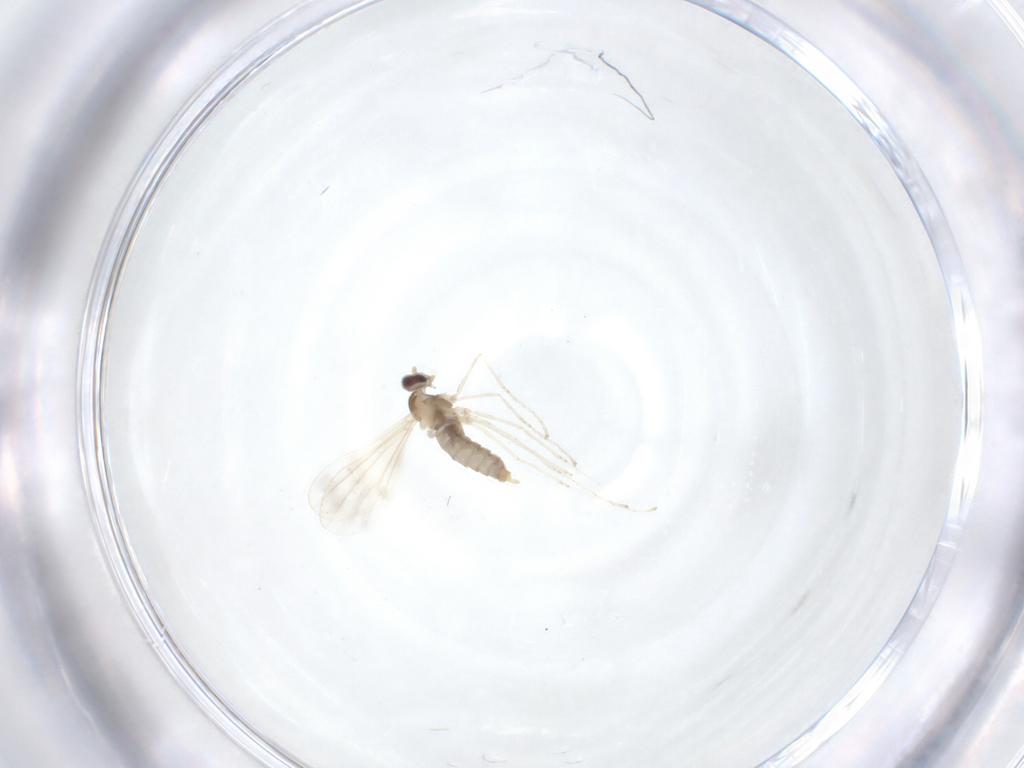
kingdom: Animalia
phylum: Arthropoda
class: Insecta
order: Diptera
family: Cecidomyiidae
